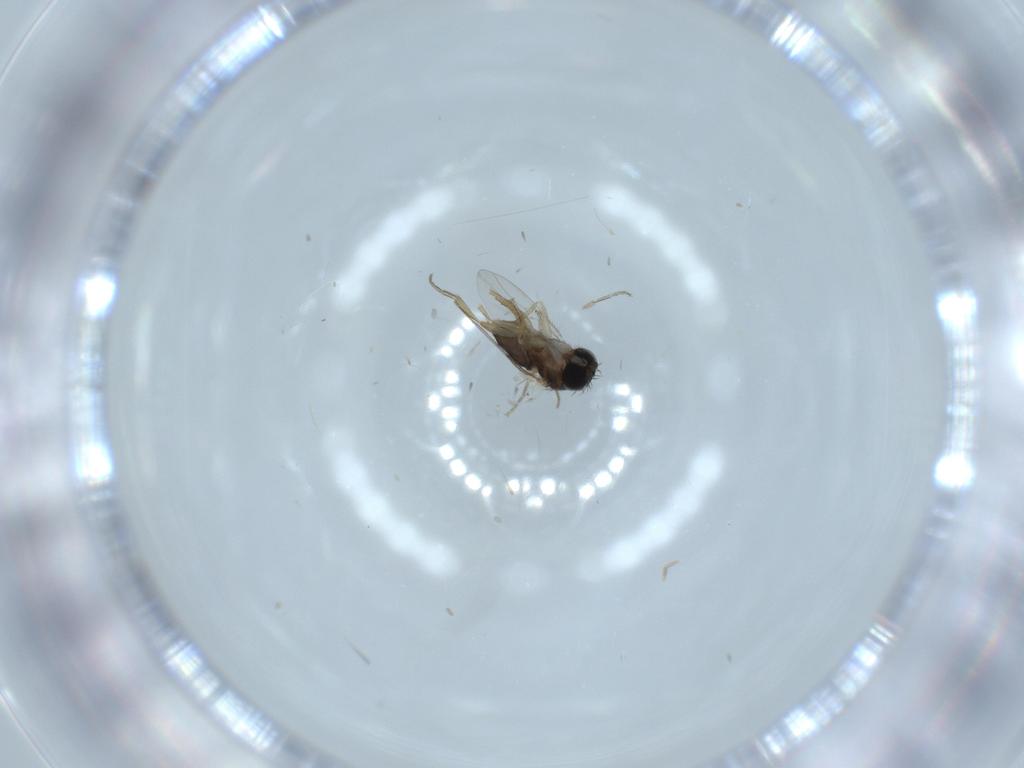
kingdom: Animalia
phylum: Arthropoda
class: Insecta
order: Diptera
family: Phoridae
